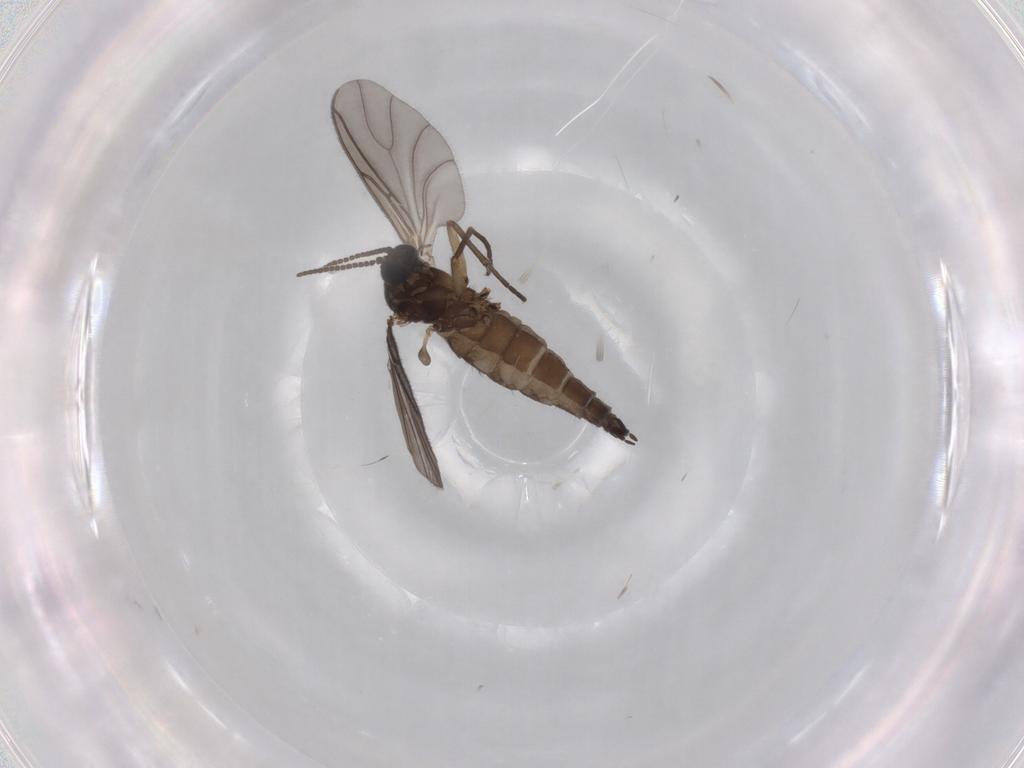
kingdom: Animalia
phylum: Arthropoda
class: Insecta
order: Diptera
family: Sciaridae
